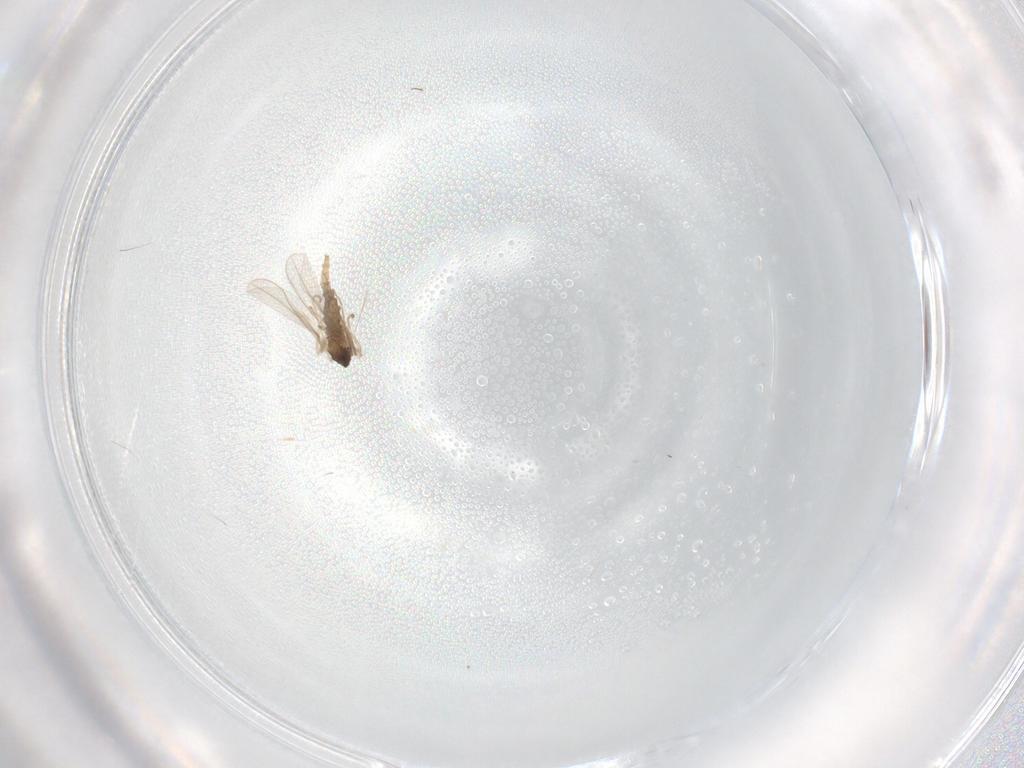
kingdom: Animalia
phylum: Arthropoda
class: Insecta
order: Diptera
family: Cecidomyiidae
